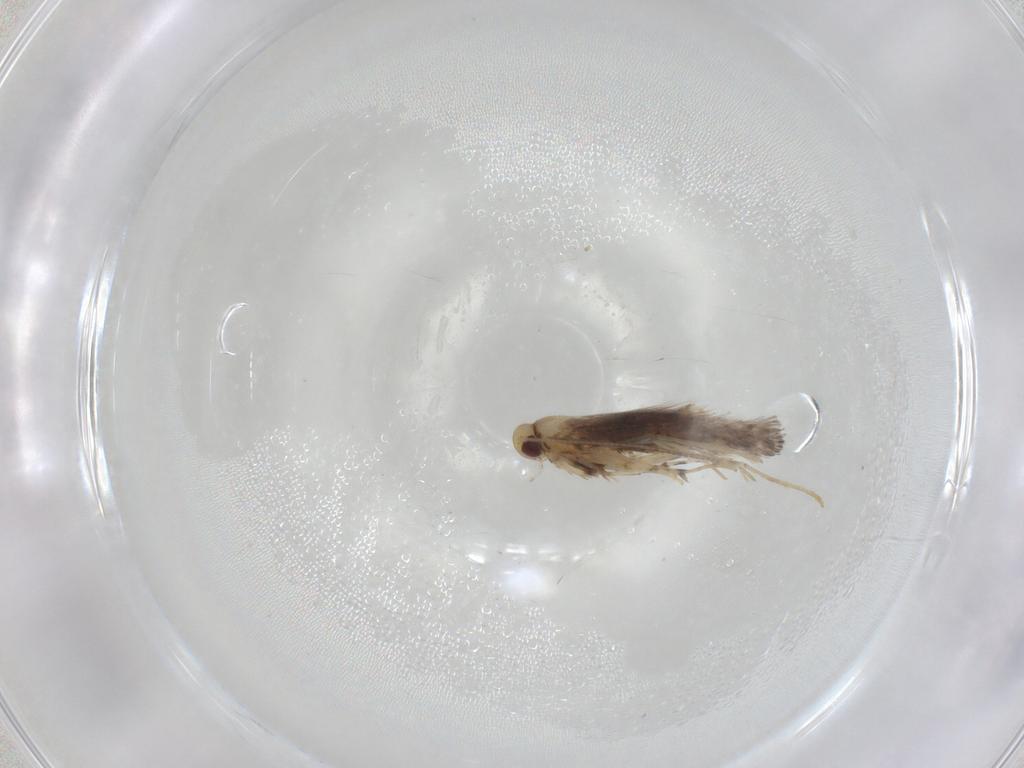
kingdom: Animalia
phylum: Arthropoda
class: Insecta
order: Lepidoptera
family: Gracillariidae
